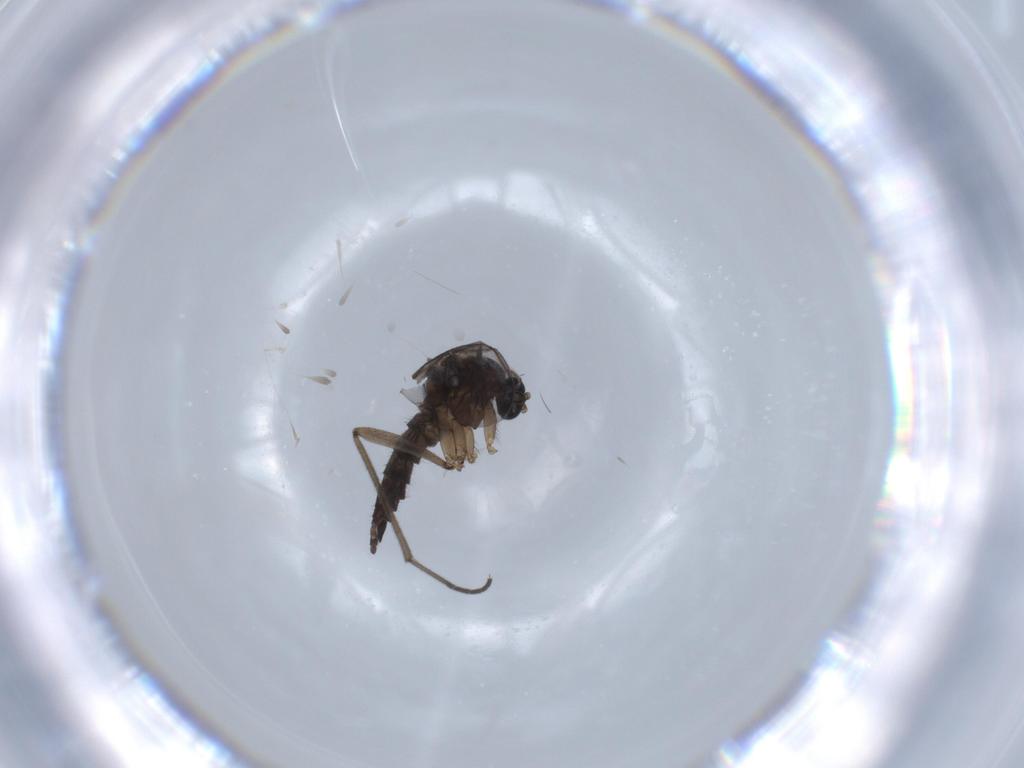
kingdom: Animalia
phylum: Arthropoda
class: Insecta
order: Diptera
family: Sciaridae
